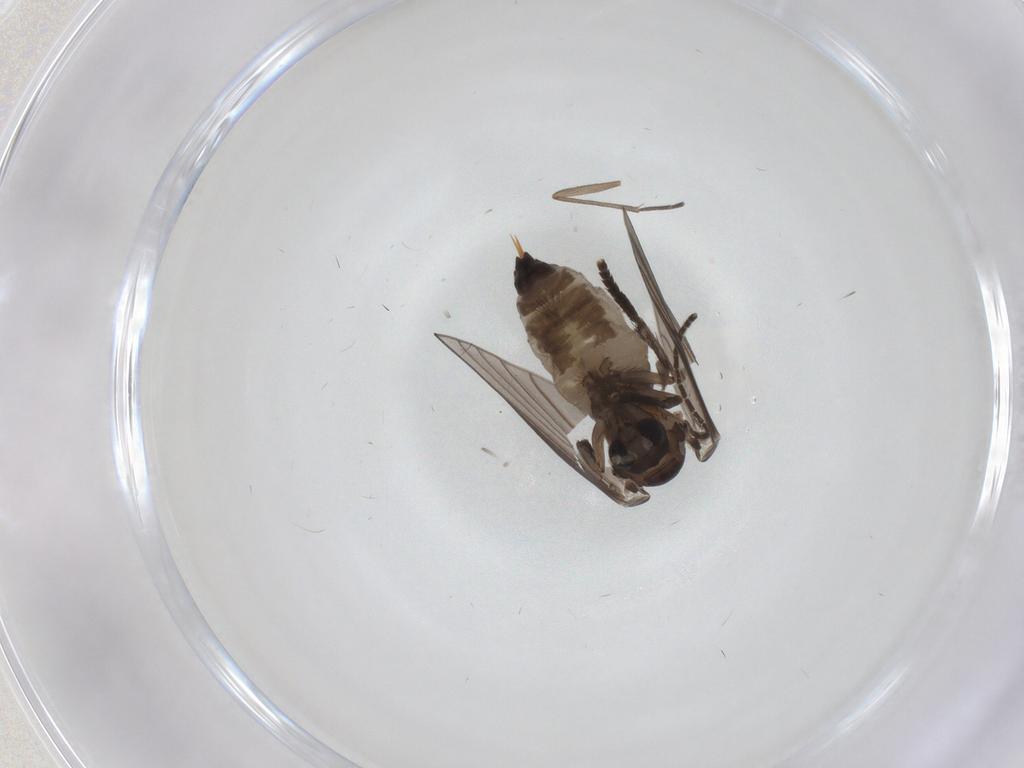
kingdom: Animalia
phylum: Arthropoda
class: Insecta
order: Diptera
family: Psychodidae
